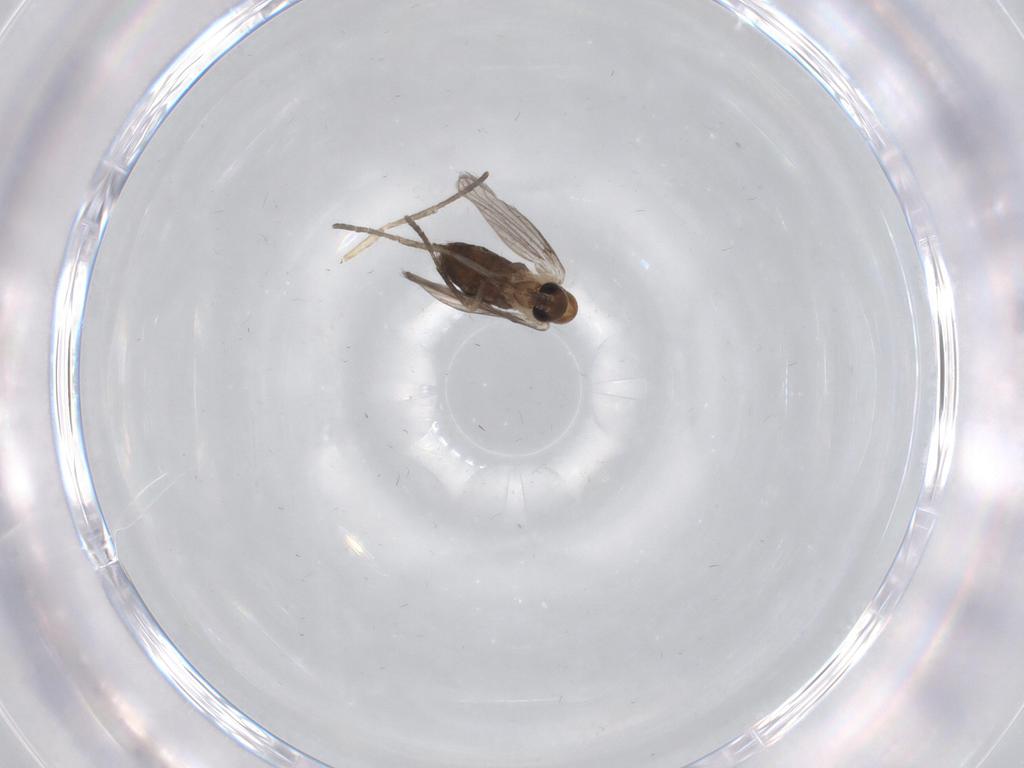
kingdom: Animalia
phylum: Arthropoda
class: Insecta
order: Diptera
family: Psychodidae
